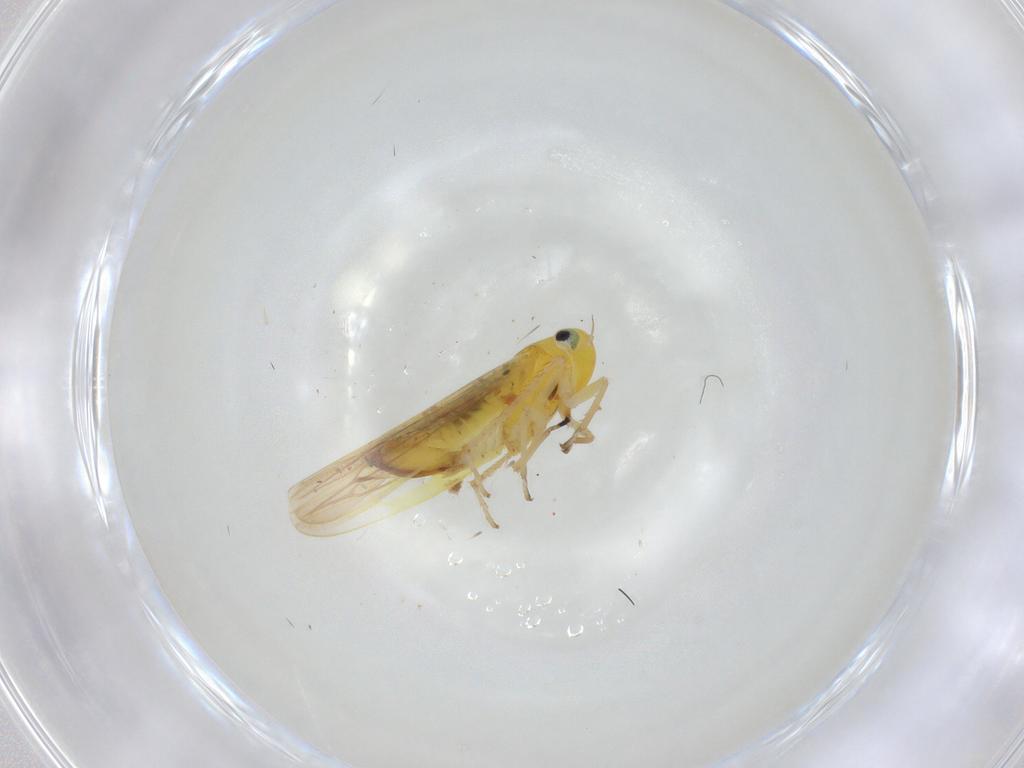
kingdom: Animalia
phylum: Arthropoda
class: Insecta
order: Hemiptera
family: Cicadellidae
